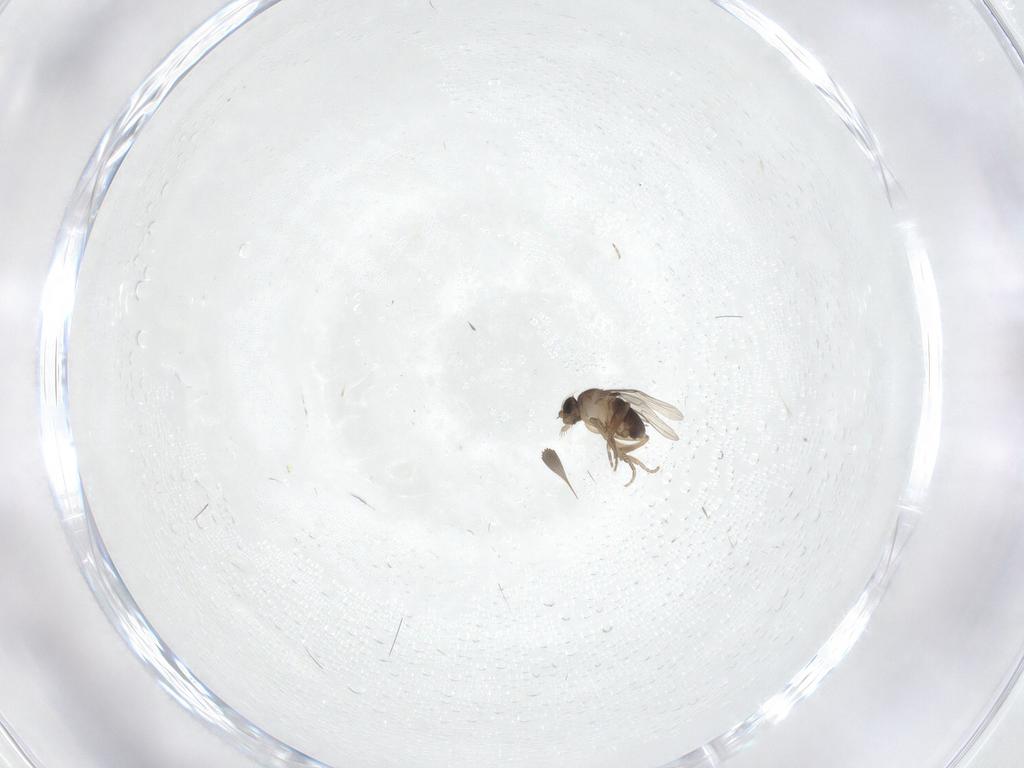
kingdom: Animalia
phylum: Arthropoda
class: Insecta
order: Diptera
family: Phoridae
